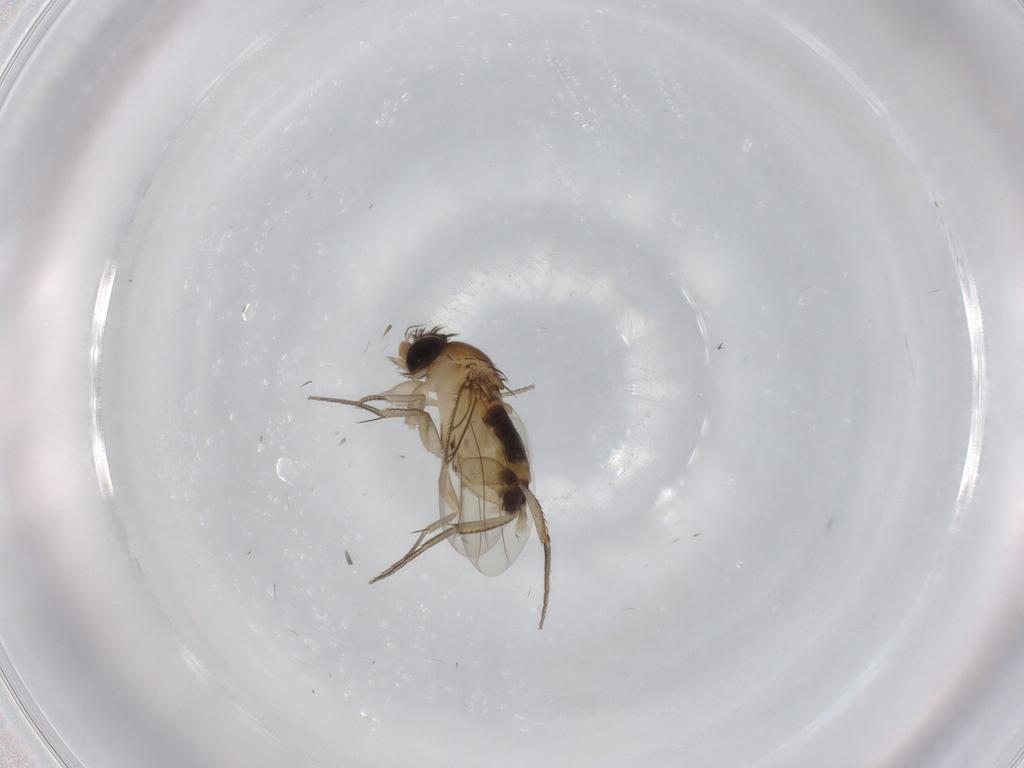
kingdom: Animalia
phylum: Arthropoda
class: Insecta
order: Diptera
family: Phoridae
